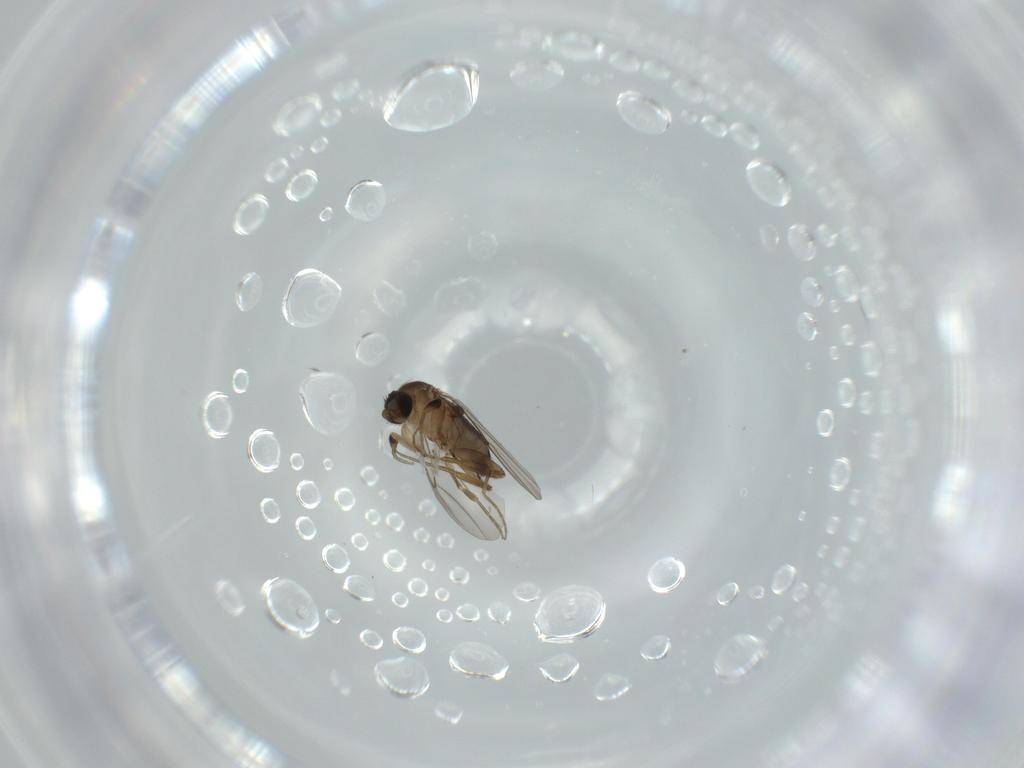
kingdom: Animalia
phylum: Arthropoda
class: Insecta
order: Diptera
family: Phoridae
